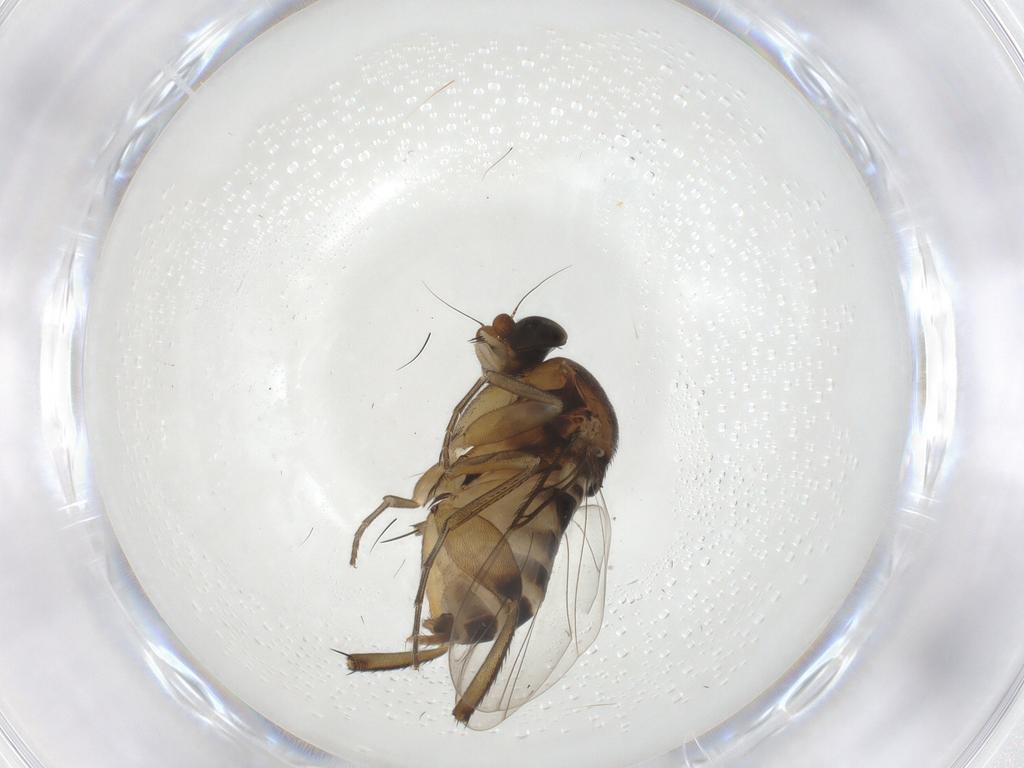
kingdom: Animalia
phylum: Arthropoda
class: Insecta
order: Diptera
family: Phoridae
